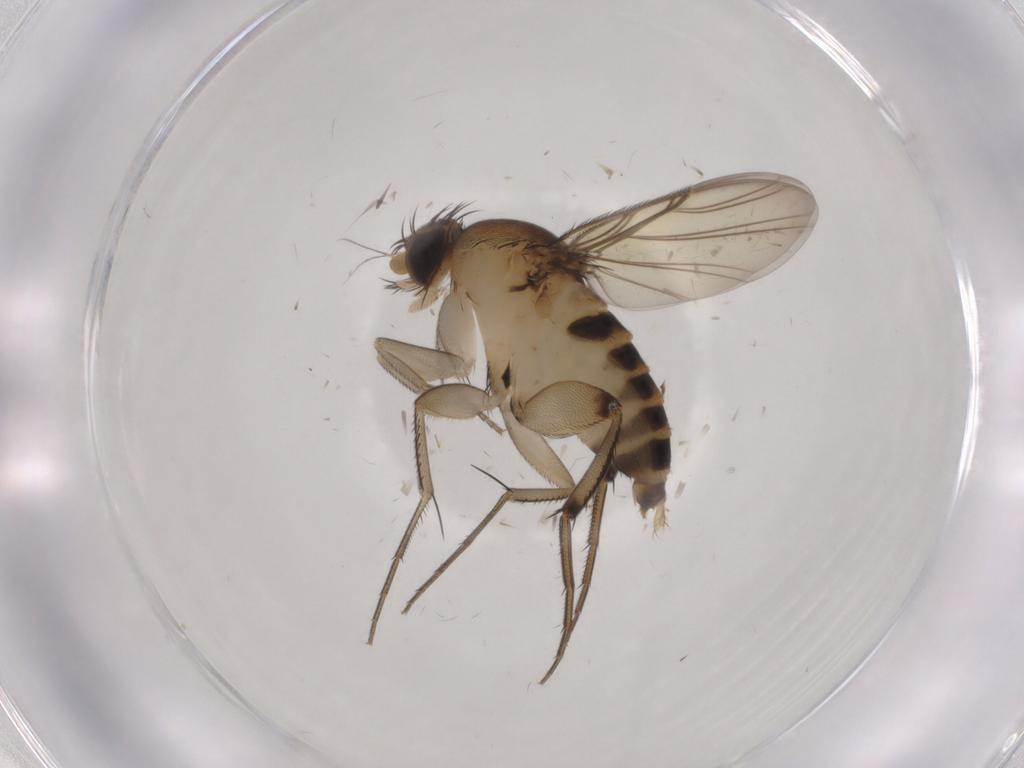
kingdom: Animalia
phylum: Arthropoda
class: Insecta
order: Diptera
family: Phoridae
